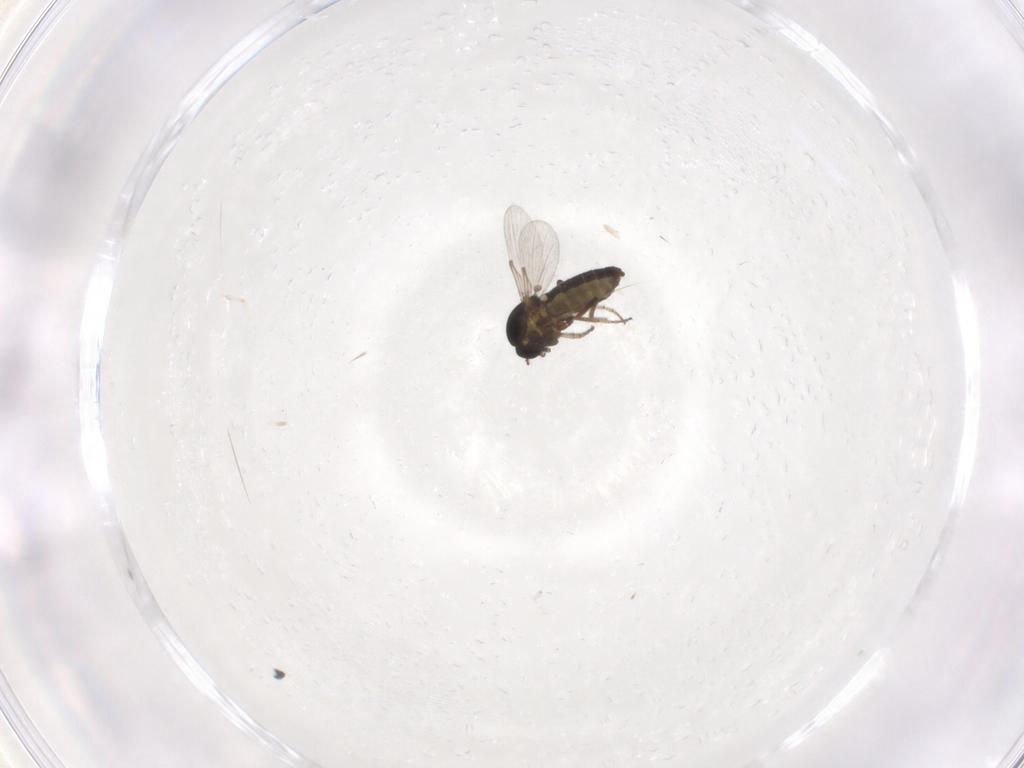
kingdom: Animalia
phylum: Arthropoda
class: Insecta
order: Diptera
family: Ceratopogonidae
